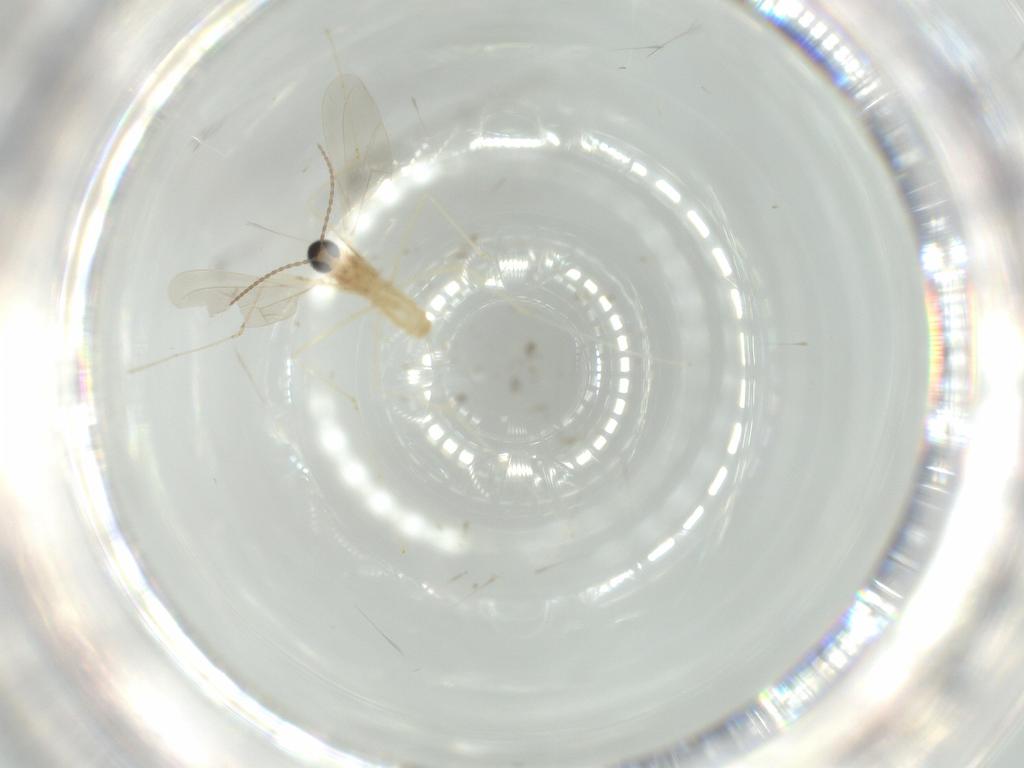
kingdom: Animalia
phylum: Arthropoda
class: Insecta
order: Diptera
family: Cecidomyiidae
